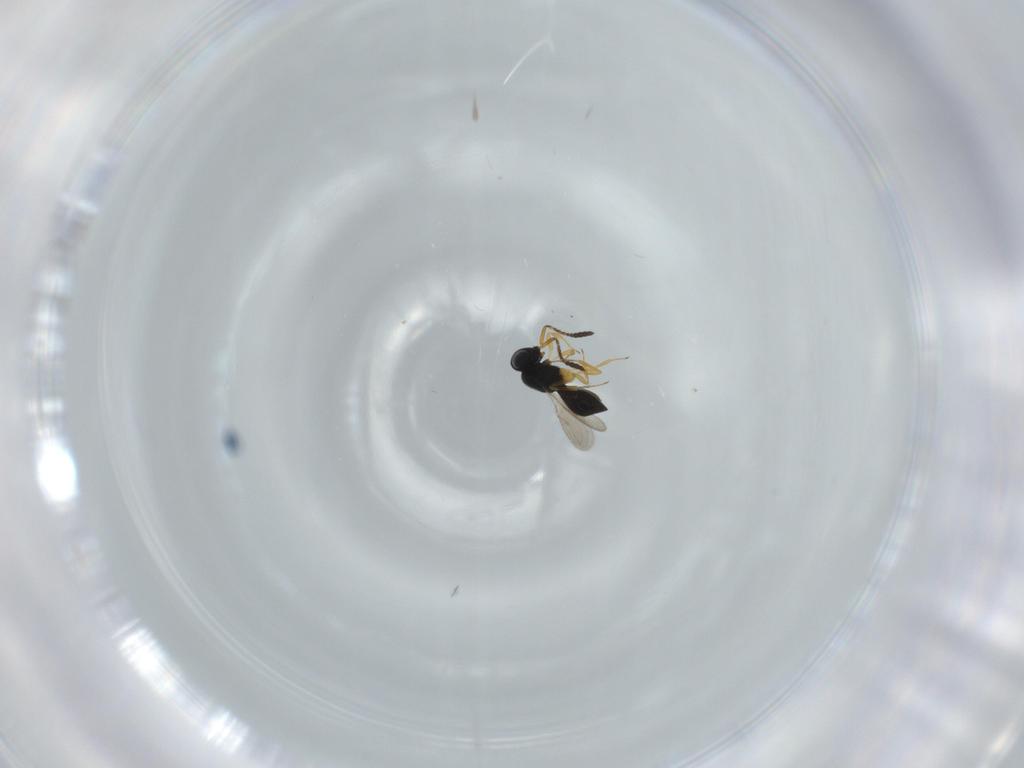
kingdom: Animalia
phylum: Arthropoda
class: Insecta
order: Hymenoptera
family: Scelionidae
